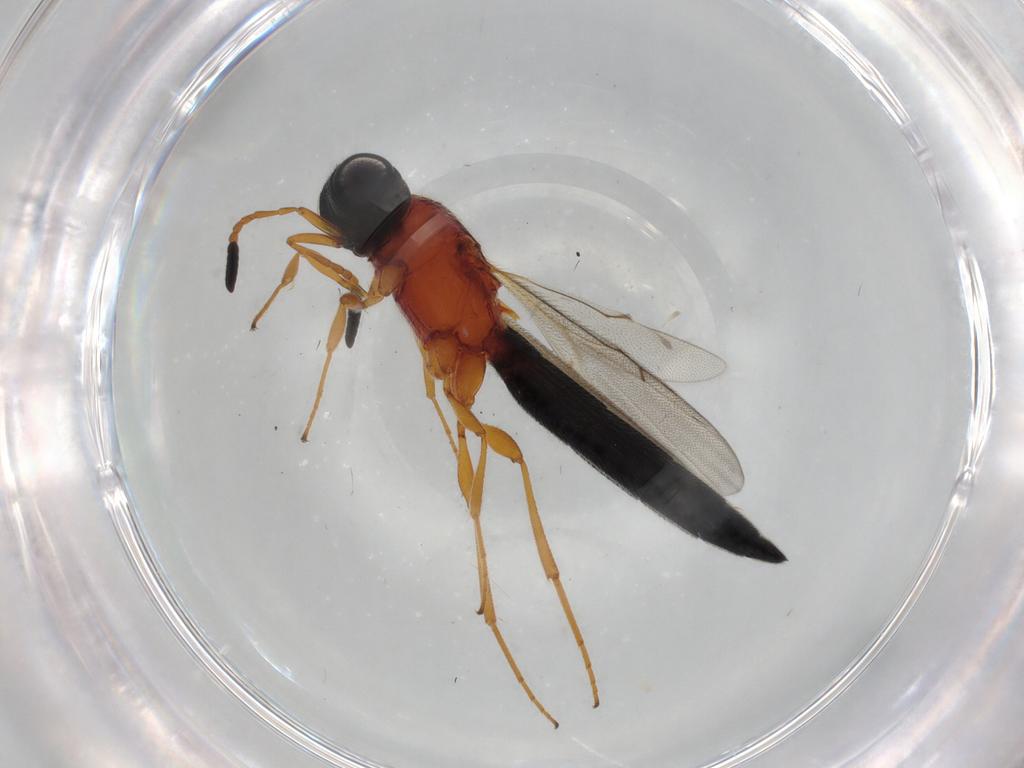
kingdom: Animalia
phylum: Arthropoda
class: Insecta
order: Hymenoptera
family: Scelionidae
